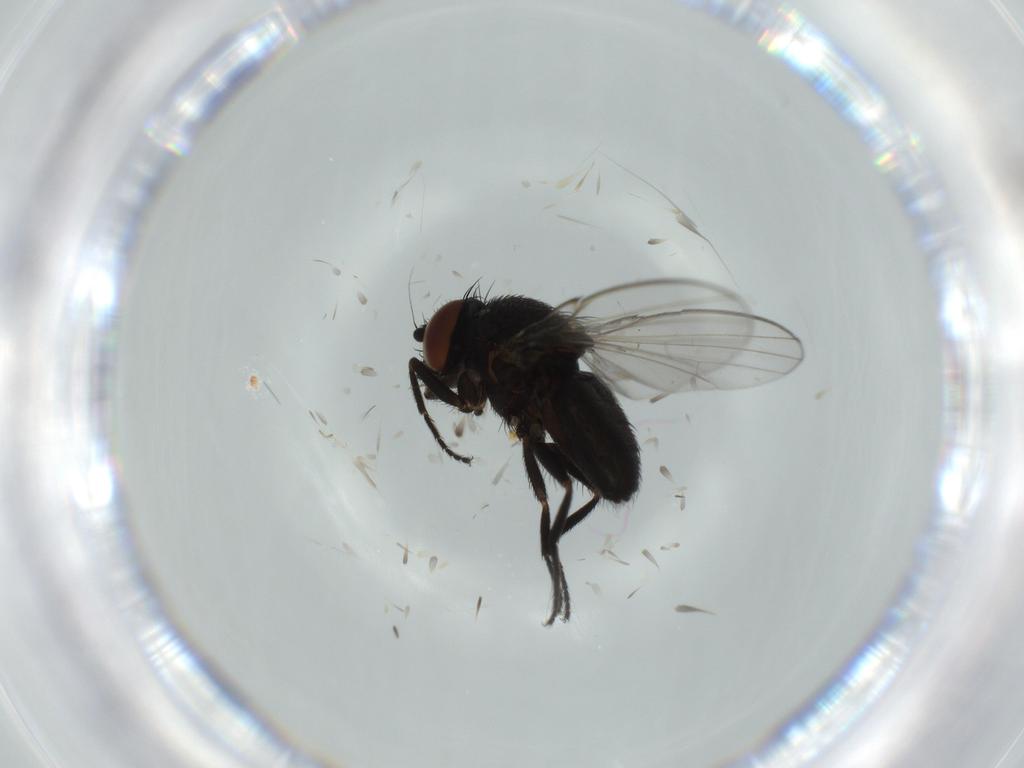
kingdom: Animalia
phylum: Arthropoda
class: Insecta
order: Diptera
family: Milichiidae
